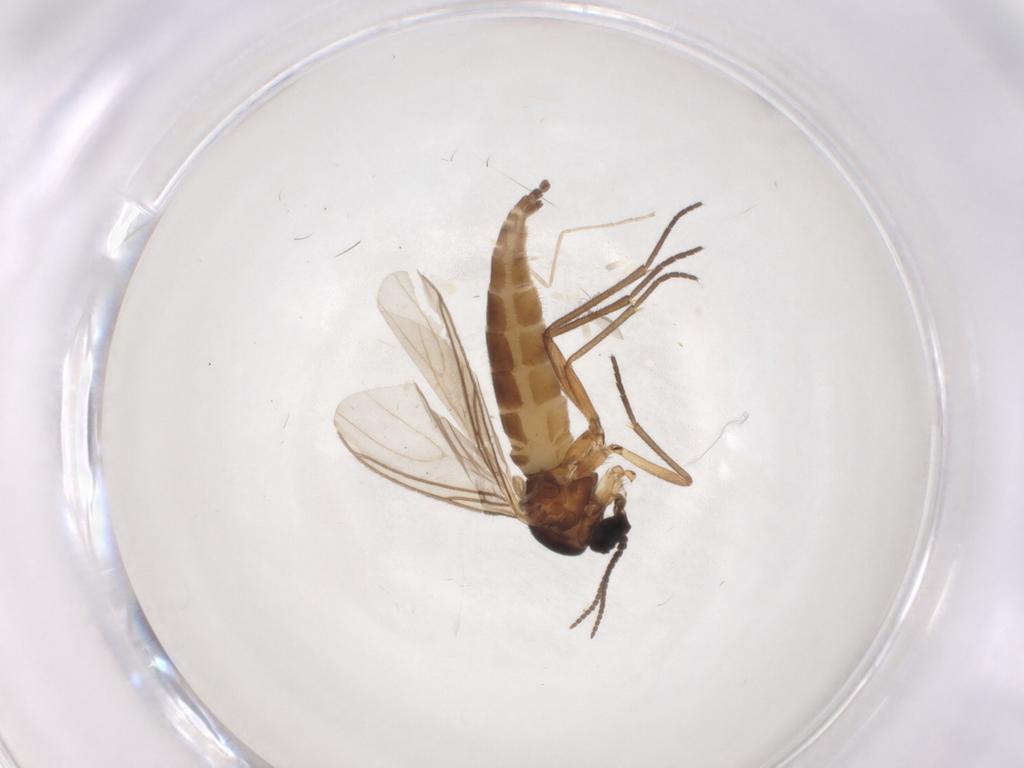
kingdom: Animalia
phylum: Arthropoda
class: Insecta
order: Diptera
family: Sciaridae
